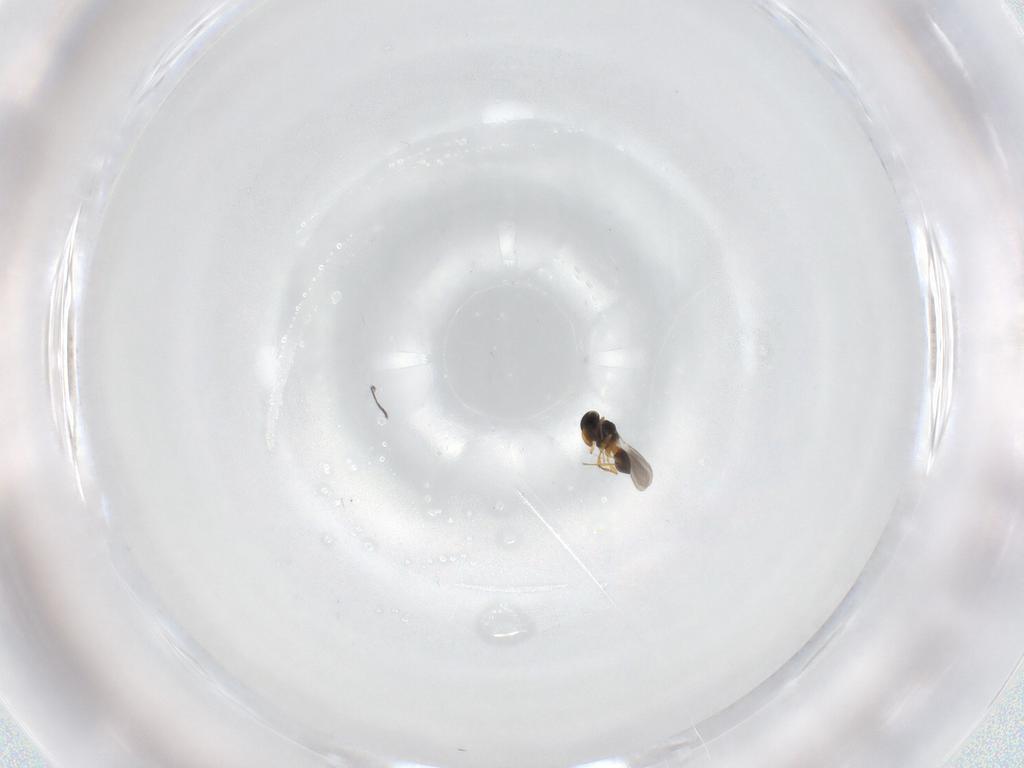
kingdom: Animalia
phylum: Arthropoda
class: Insecta
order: Hymenoptera
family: Platygastridae
